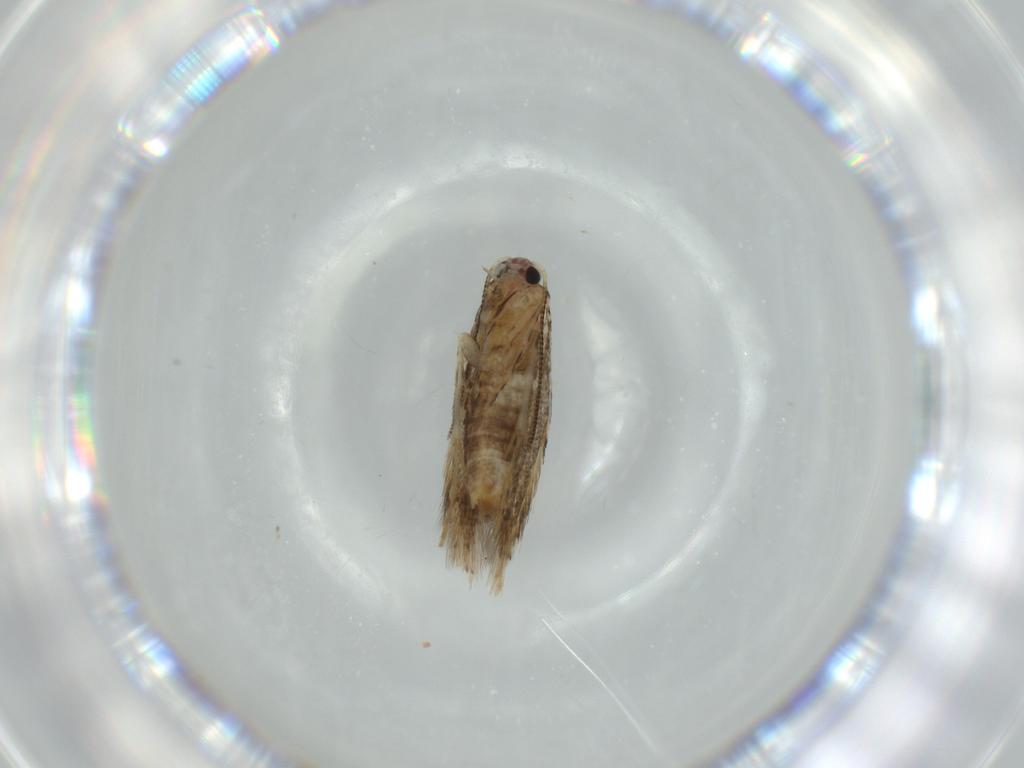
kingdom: Animalia
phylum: Arthropoda
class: Insecta
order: Lepidoptera
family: Tineidae
